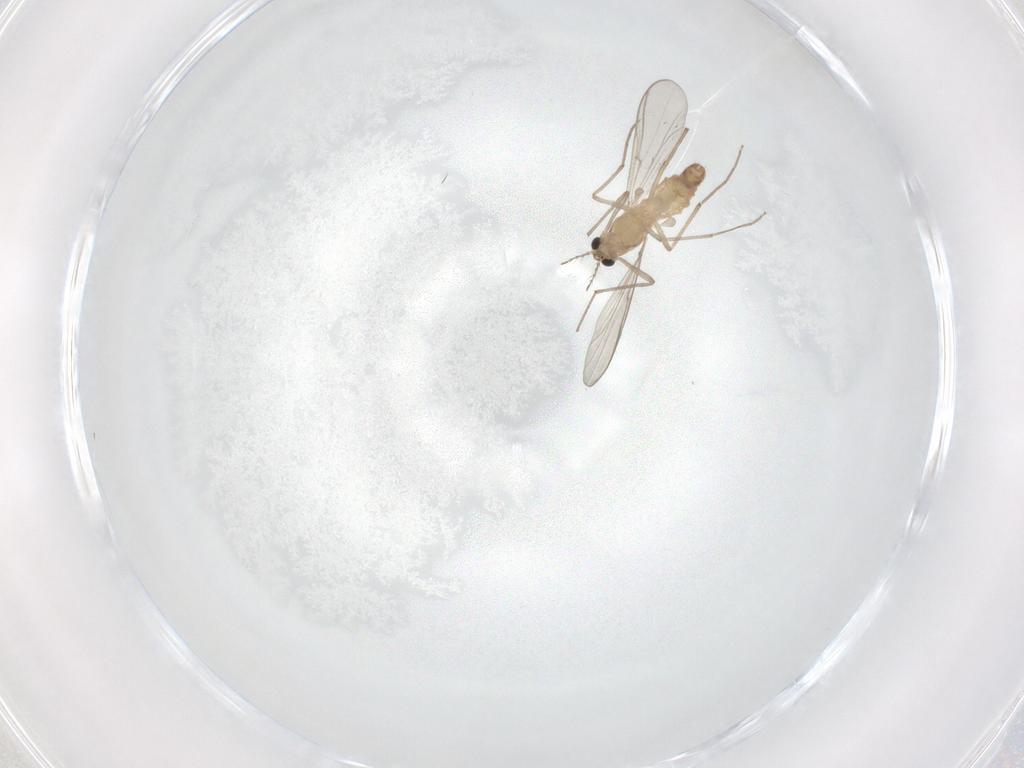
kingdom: Animalia
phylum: Arthropoda
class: Insecta
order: Diptera
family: Chironomidae
